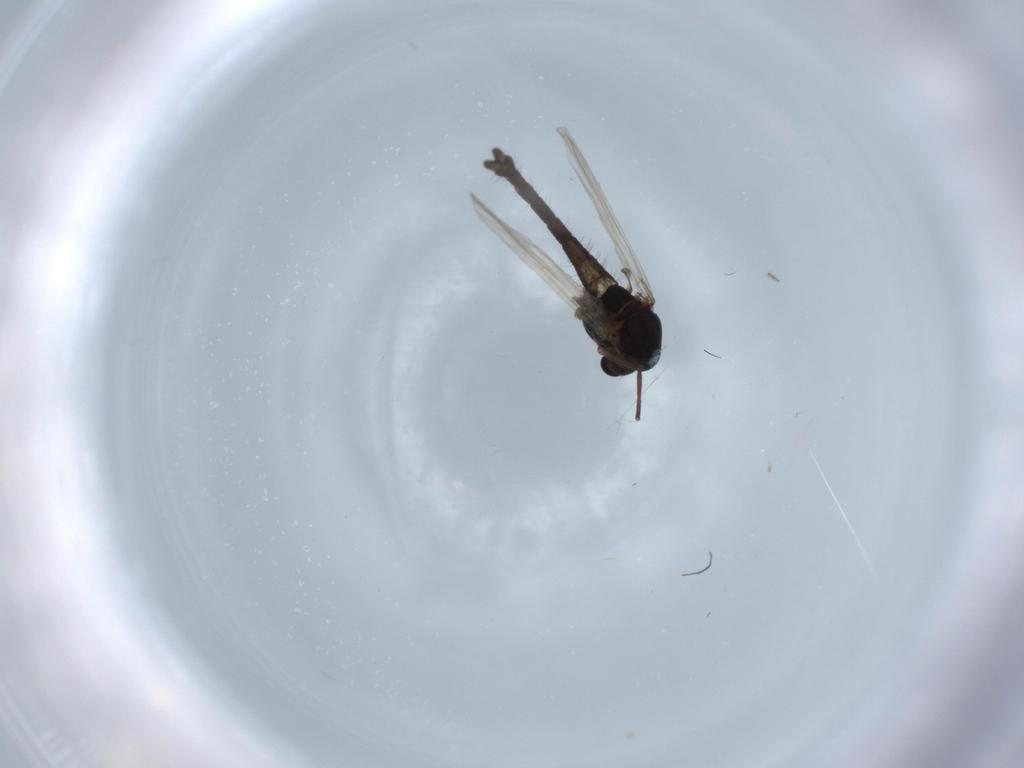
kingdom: Animalia
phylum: Arthropoda
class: Insecta
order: Diptera
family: Chironomidae
